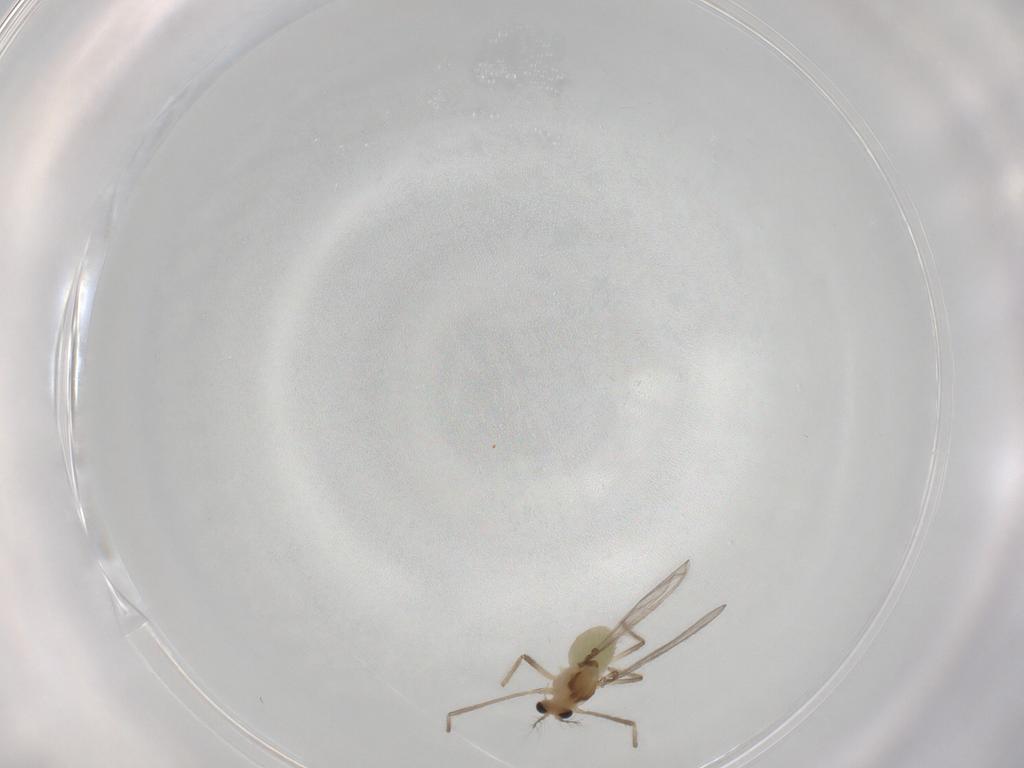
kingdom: Animalia
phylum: Arthropoda
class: Insecta
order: Diptera
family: Chironomidae
